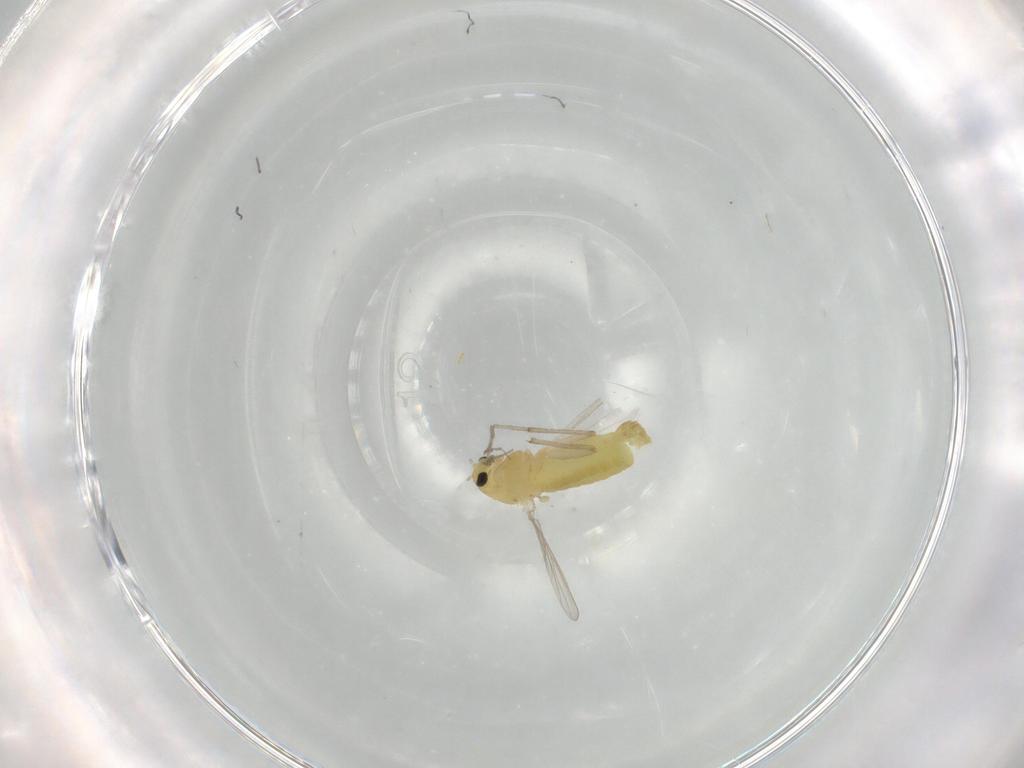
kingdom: Animalia
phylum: Arthropoda
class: Insecta
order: Diptera
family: Chironomidae
